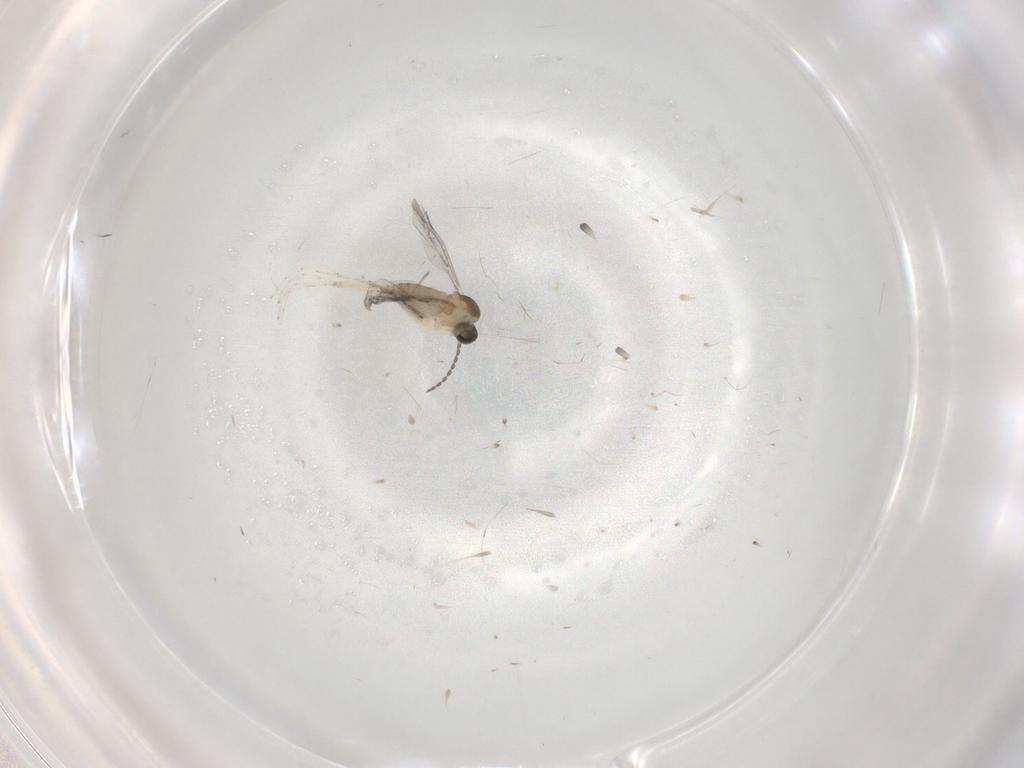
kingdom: Animalia
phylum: Arthropoda
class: Insecta
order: Diptera
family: Cecidomyiidae
